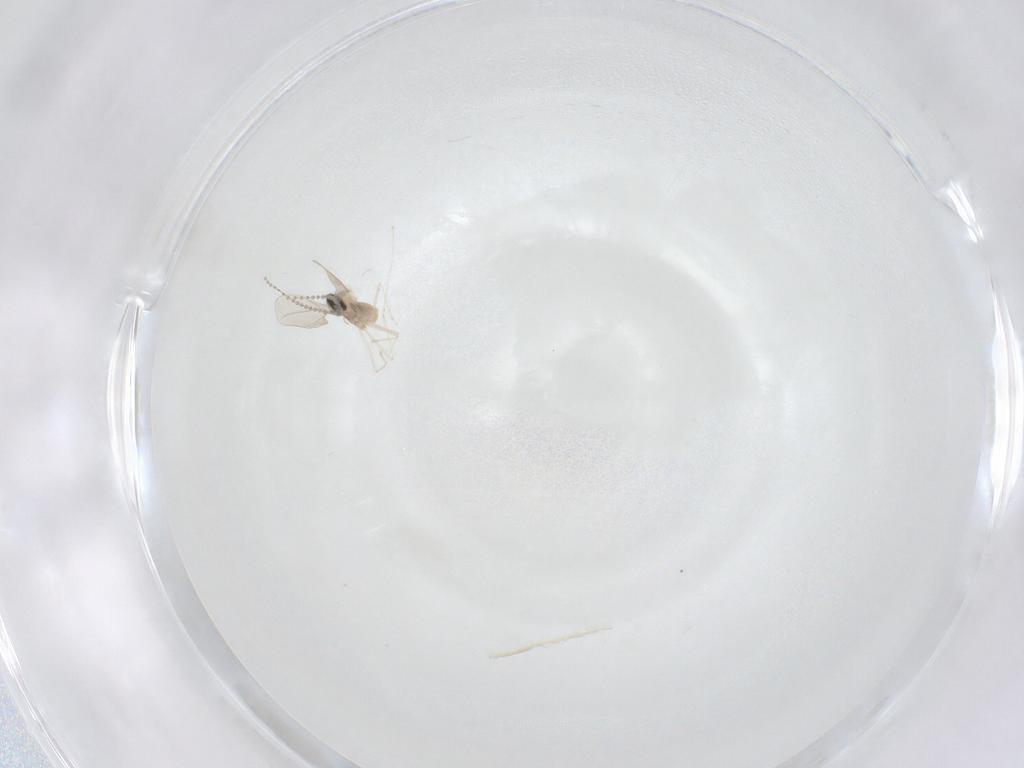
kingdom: Animalia
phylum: Arthropoda
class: Insecta
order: Diptera
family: Cecidomyiidae
